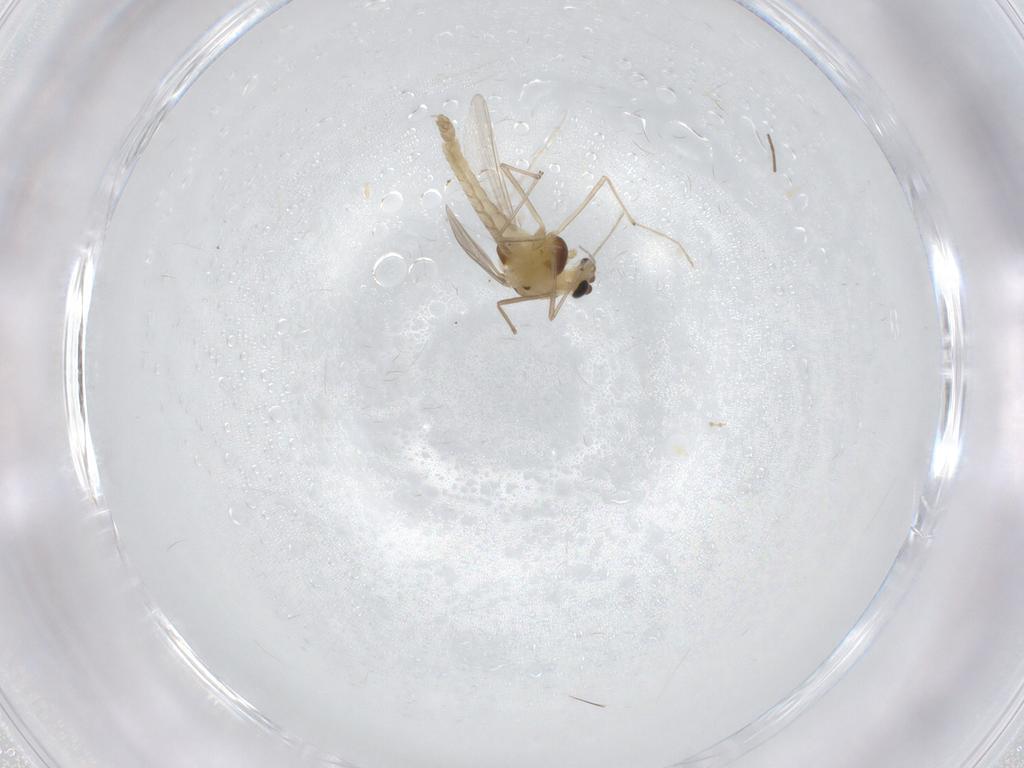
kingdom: Animalia
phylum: Arthropoda
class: Insecta
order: Diptera
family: Chironomidae
